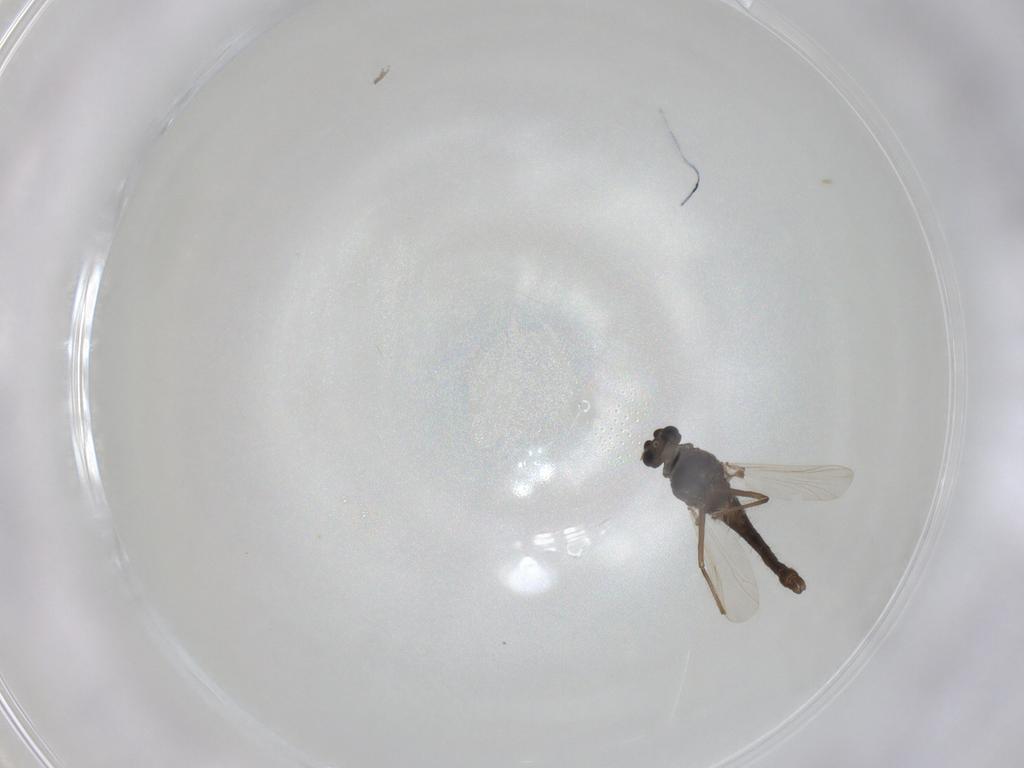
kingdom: Animalia
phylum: Arthropoda
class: Insecta
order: Diptera
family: Chironomidae
